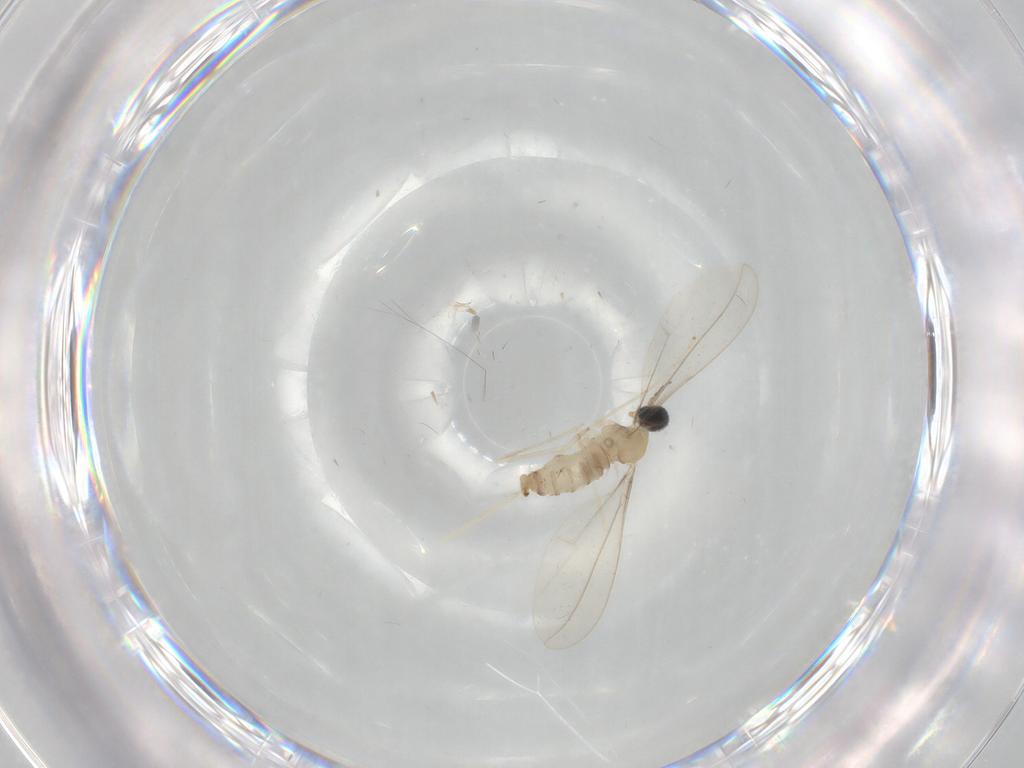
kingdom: Animalia
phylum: Arthropoda
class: Insecta
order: Diptera
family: Cecidomyiidae
